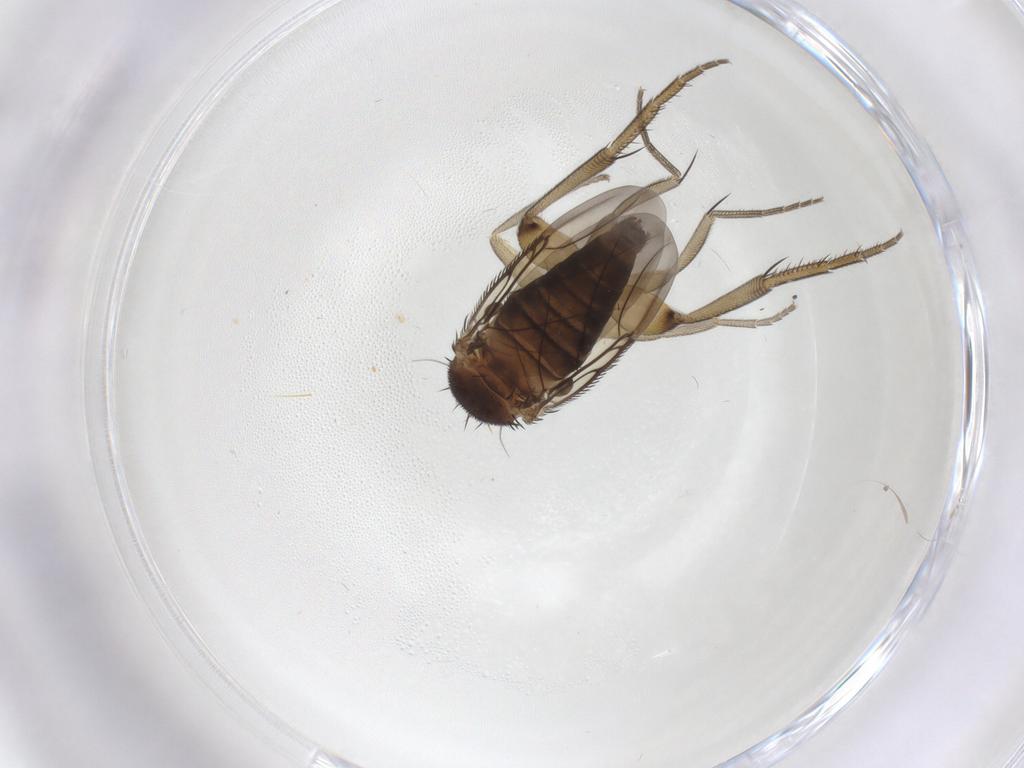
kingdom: Animalia
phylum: Arthropoda
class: Insecta
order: Diptera
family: Phoridae
